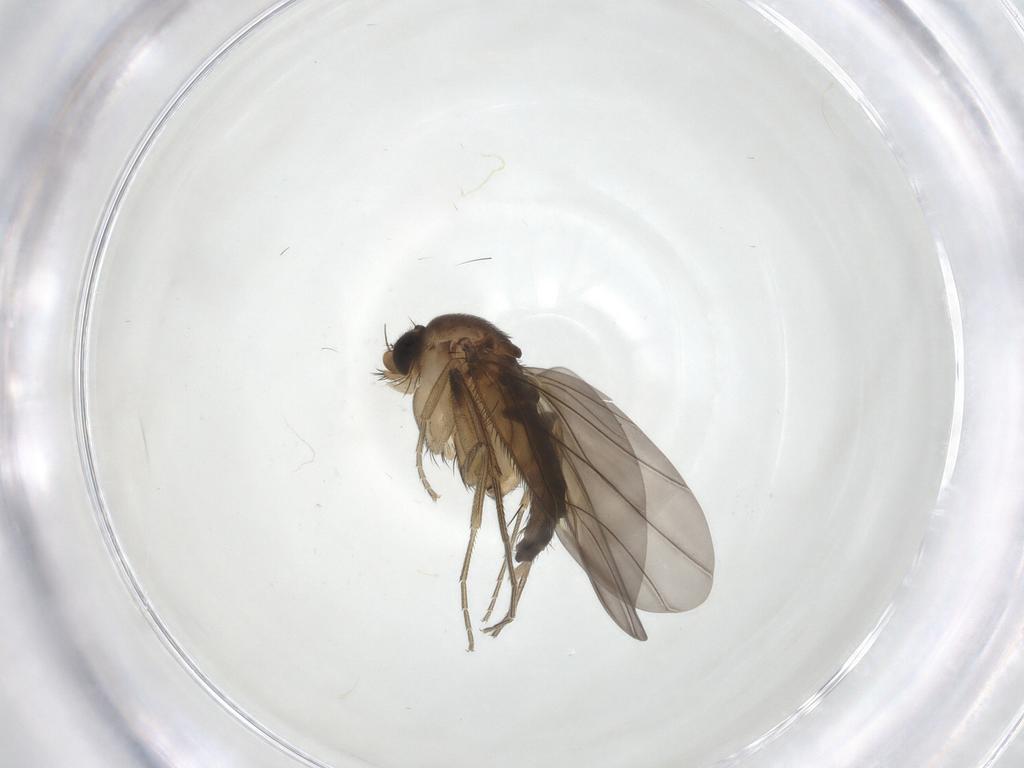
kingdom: Animalia
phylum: Arthropoda
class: Insecta
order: Diptera
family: Phoridae
